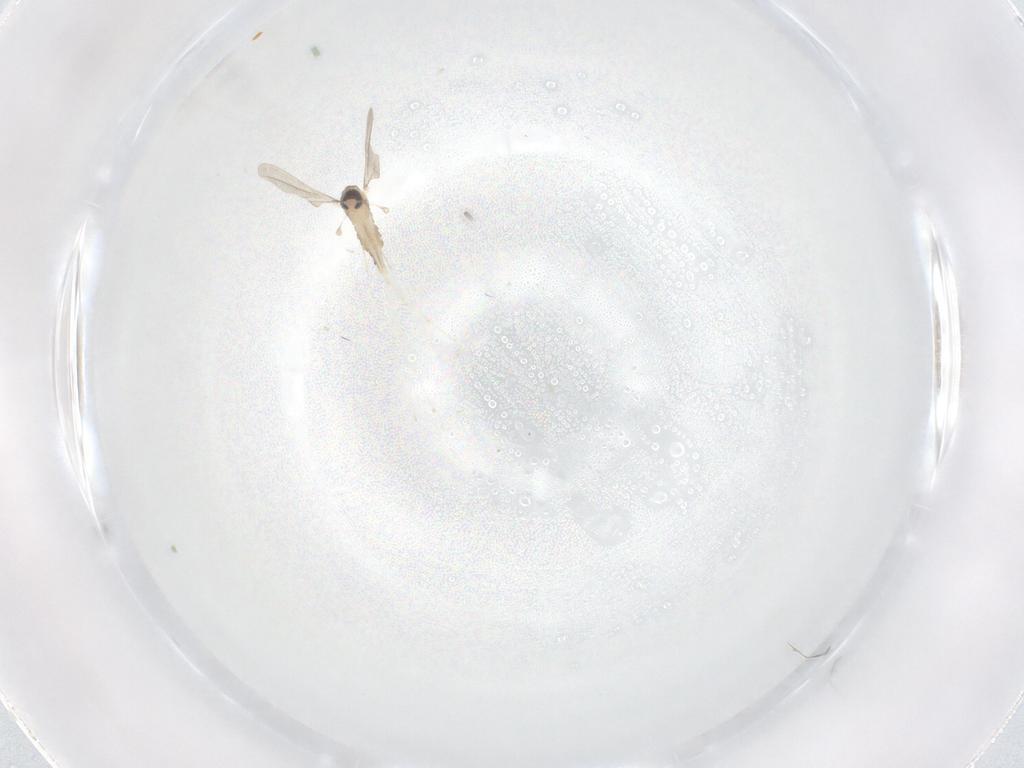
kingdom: Animalia
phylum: Arthropoda
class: Insecta
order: Diptera
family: Cecidomyiidae
